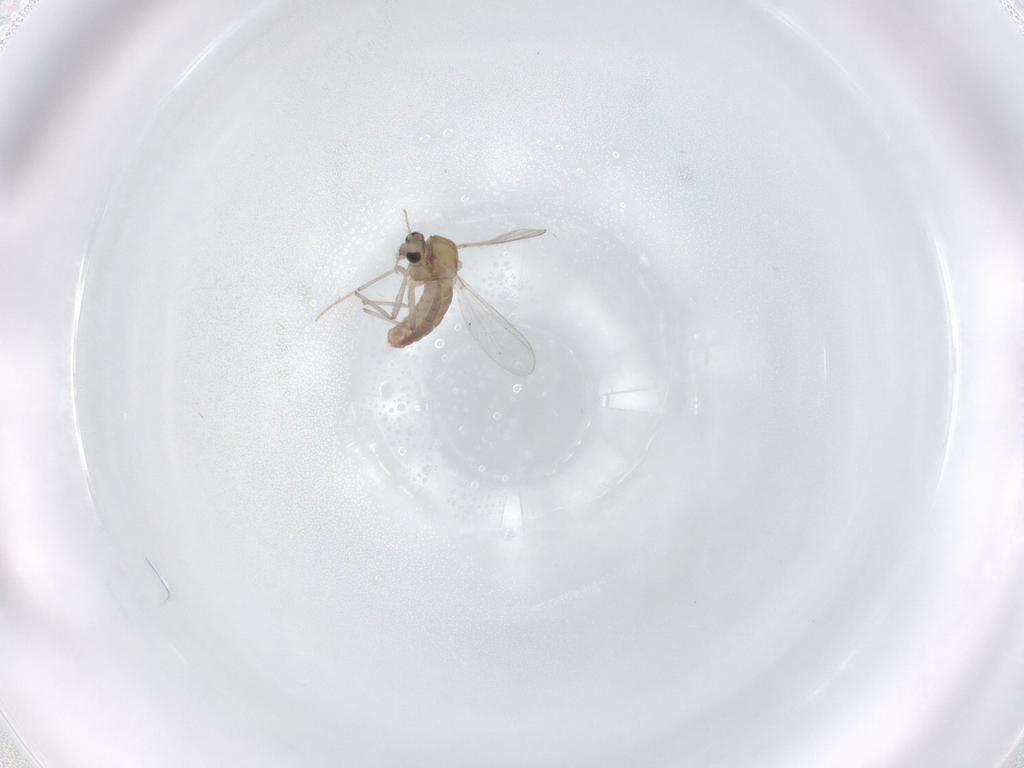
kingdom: Animalia
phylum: Arthropoda
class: Insecta
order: Diptera
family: Chironomidae
